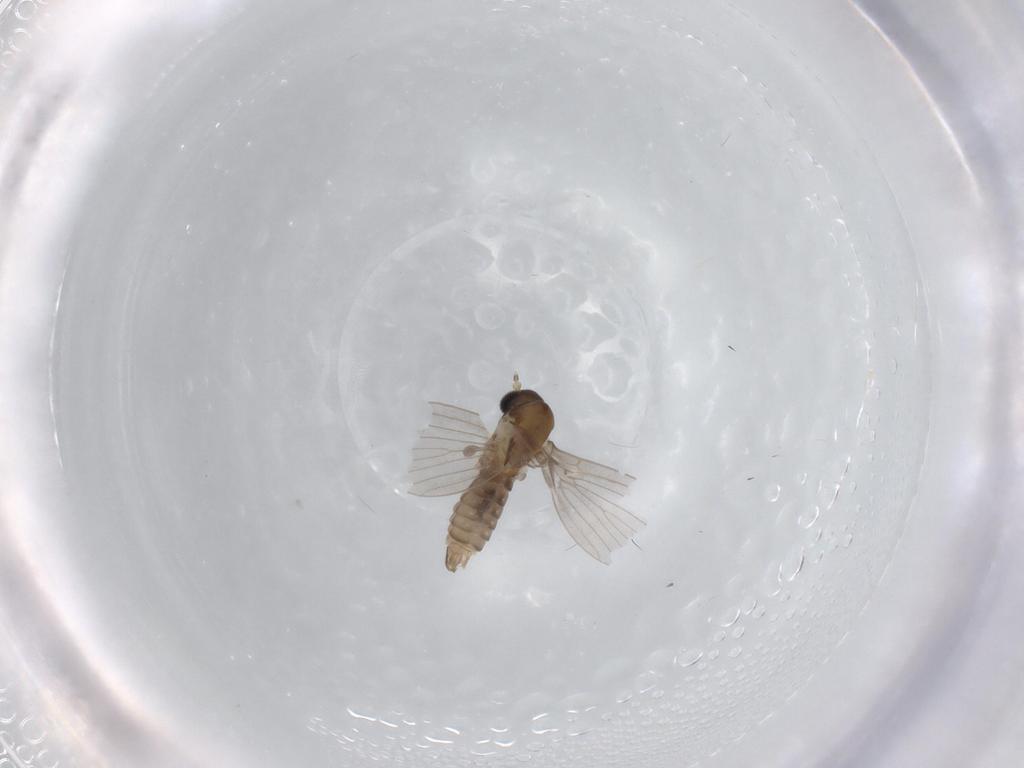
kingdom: Animalia
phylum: Arthropoda
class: Insecta
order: Diptera
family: Psychodidae
